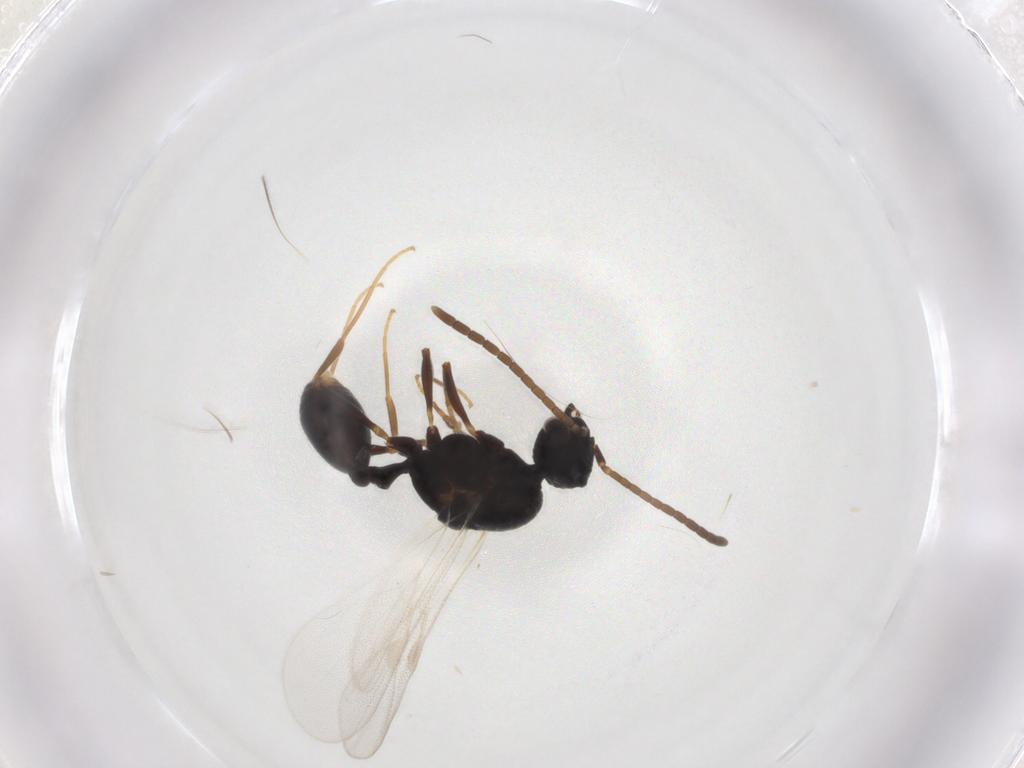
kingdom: Animalia
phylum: Arthropoda
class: Insecta
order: Hymenoptera
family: Formicidae
